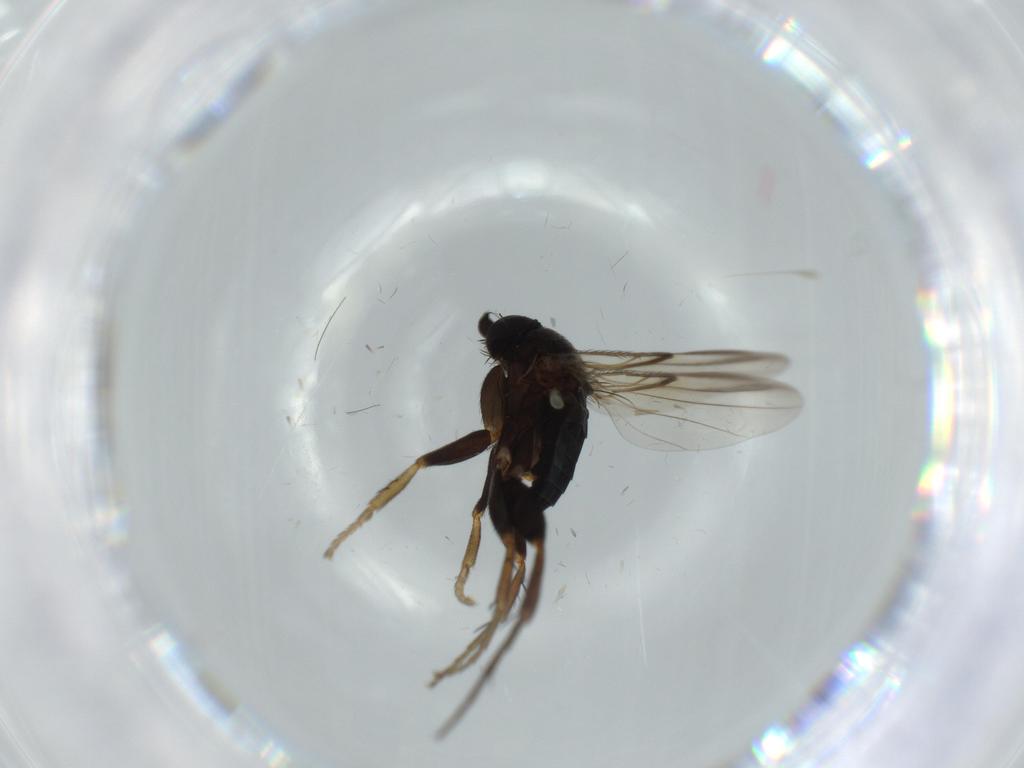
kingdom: Animalia
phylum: Arthropoda
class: Insecta
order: Diptera
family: Phoridae
